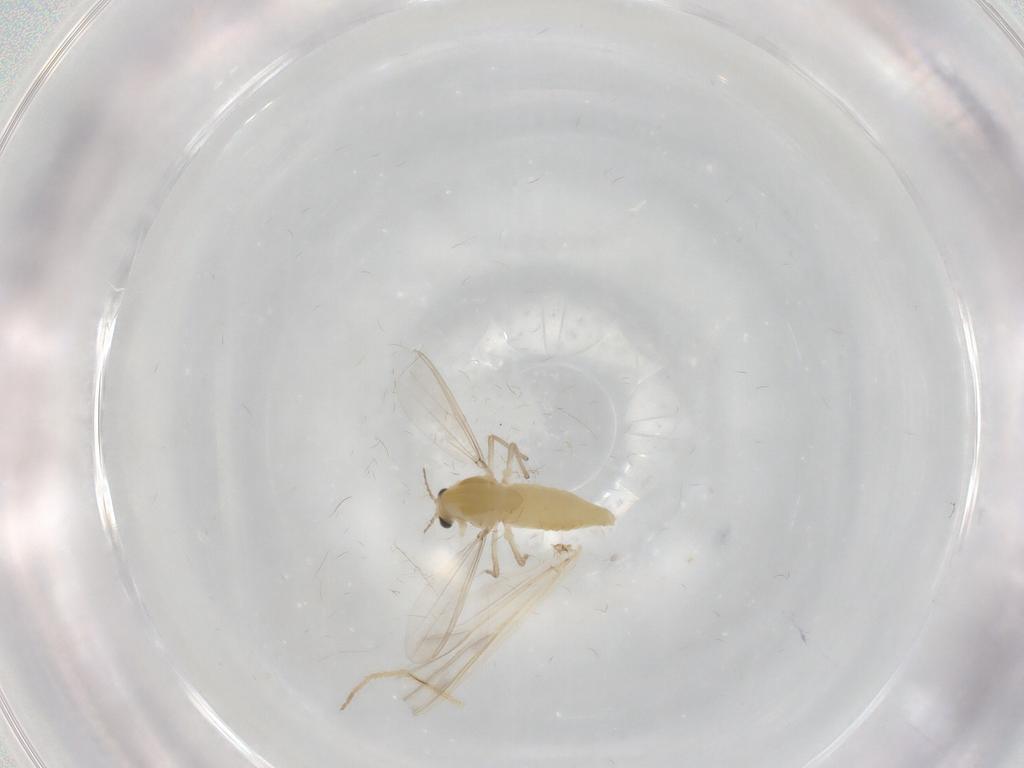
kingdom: Animalia
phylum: Arthropoda
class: Insecta
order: Diptera
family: Chironomidae
